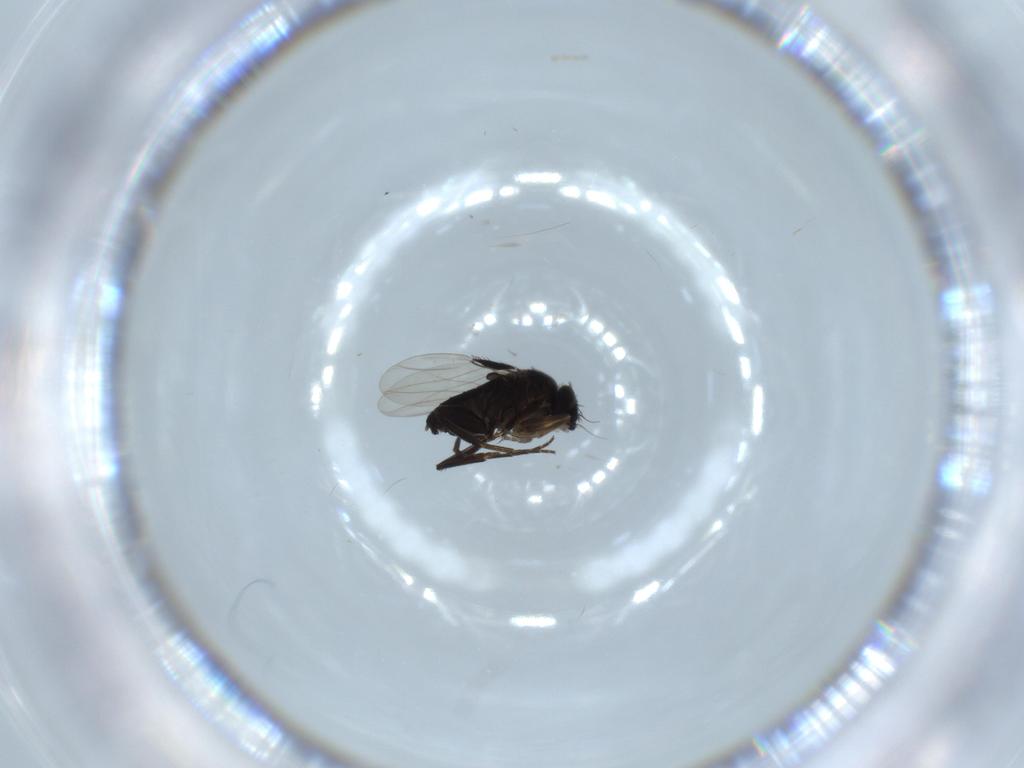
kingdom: Animalia
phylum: Arthropoda
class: Insecta
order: Diptera
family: Phoridae
